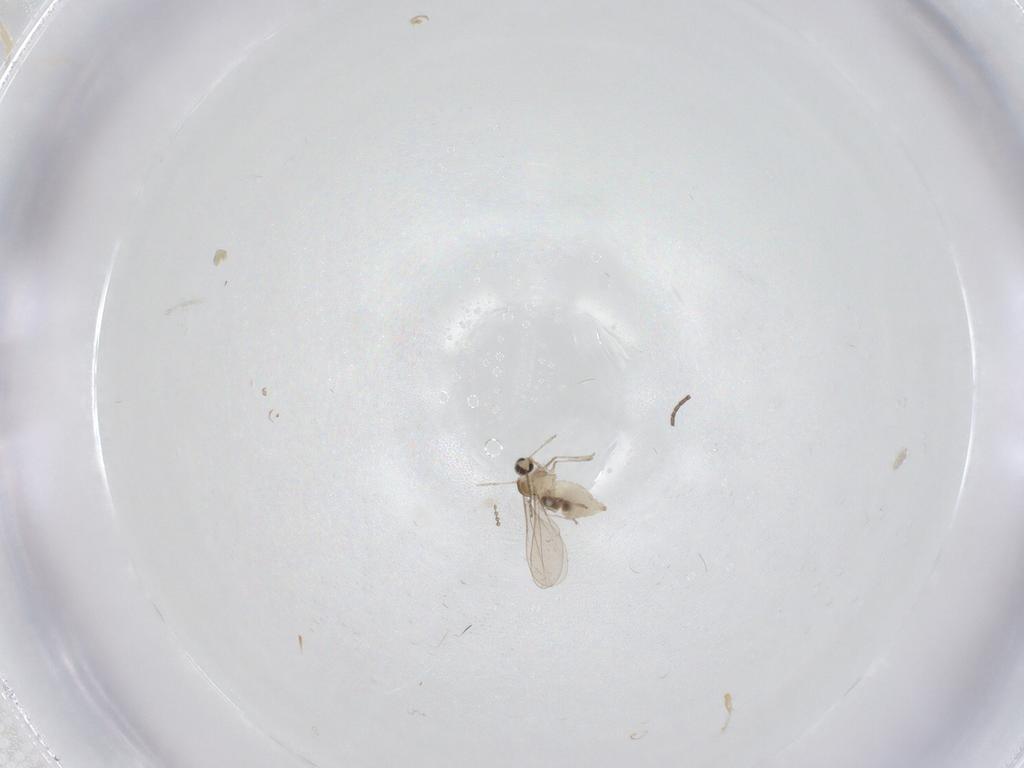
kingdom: Animalia
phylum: Arthropoda
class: Insecta
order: Diptera
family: Cecidomyiidae
